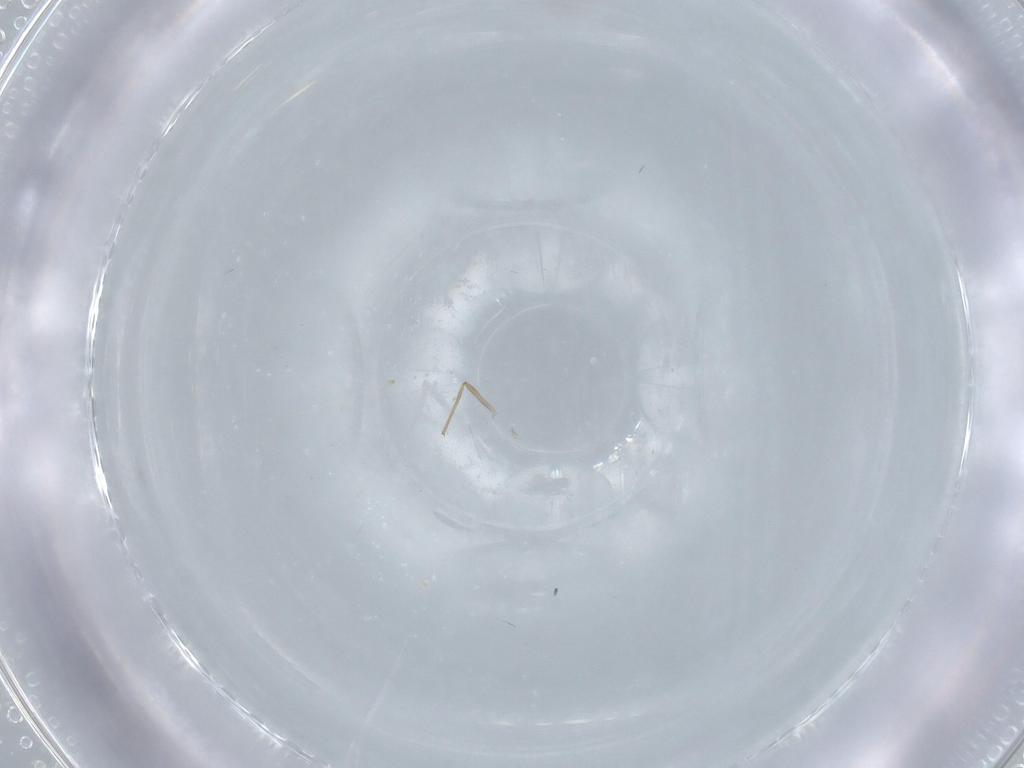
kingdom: Animalia
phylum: Arthropoda
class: Insecta
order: Diptera
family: Chironomidae
